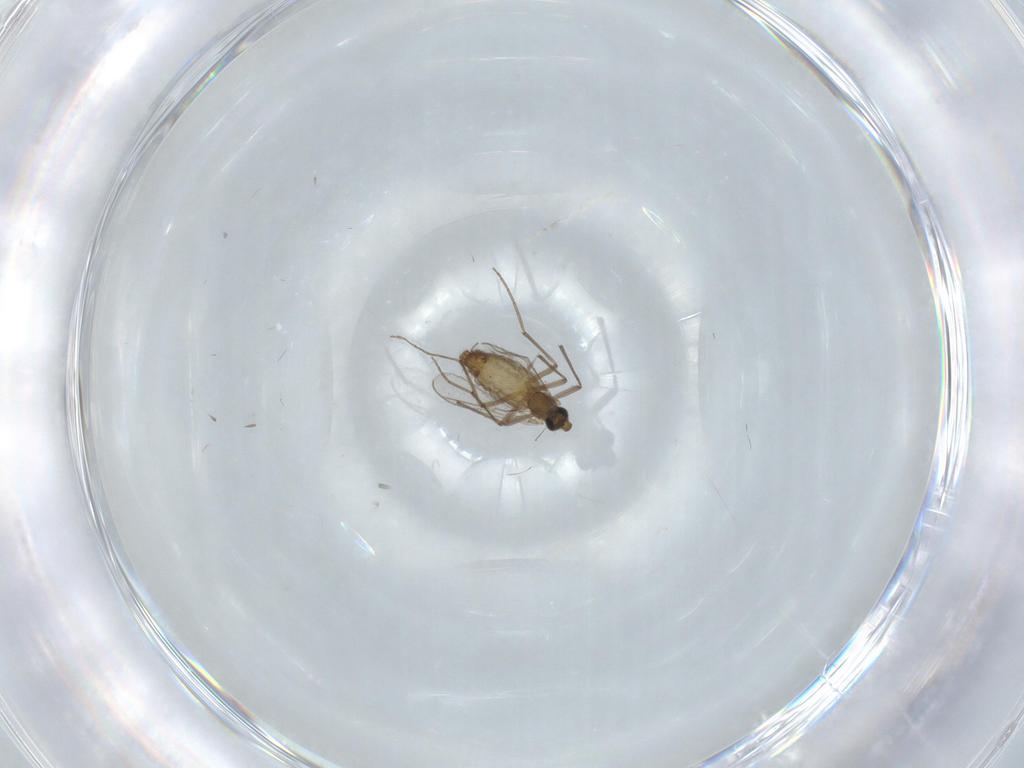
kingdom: Animalia
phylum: Arthropoda
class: Insecta
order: Diptera
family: Chironomidae
